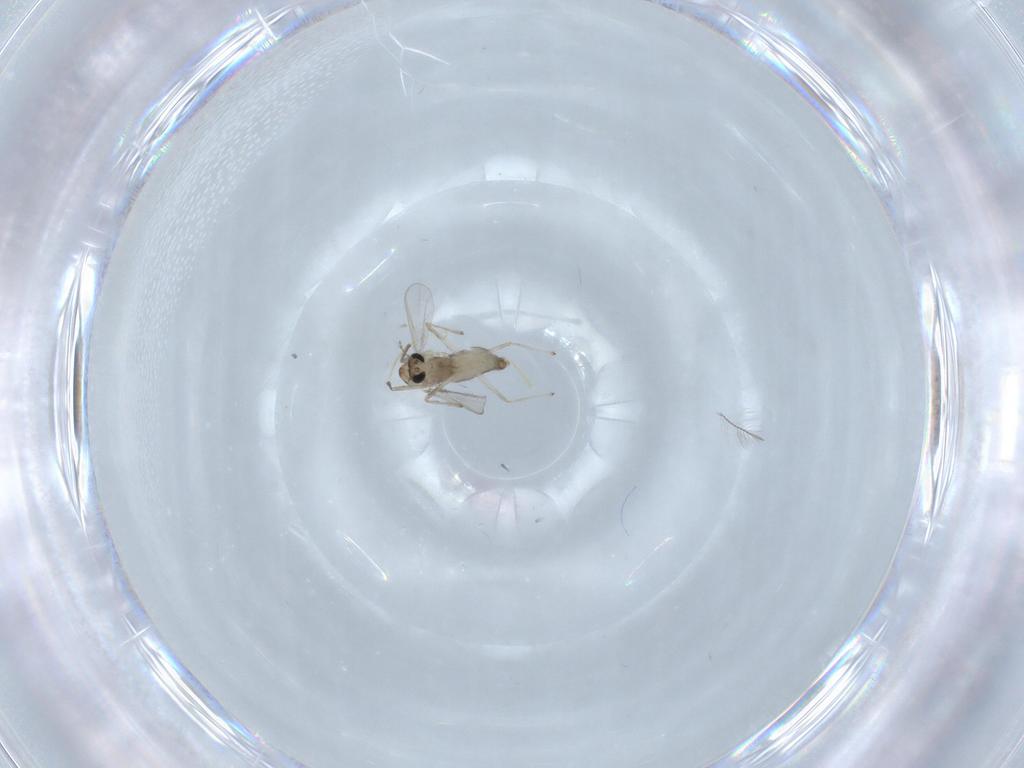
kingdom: Animalia
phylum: Arthropoda
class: Insecta
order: Diptera
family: Chironomidae
